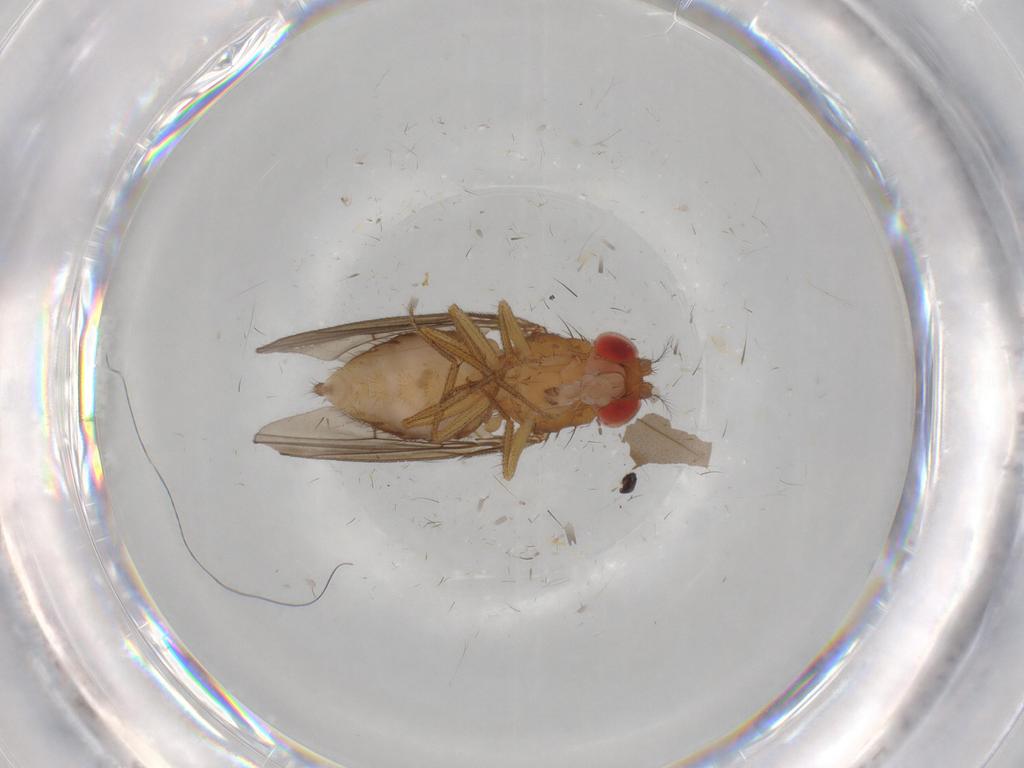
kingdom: Animalia
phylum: Arthropoda
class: Insecta
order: Diptera
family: Drosophilidae
